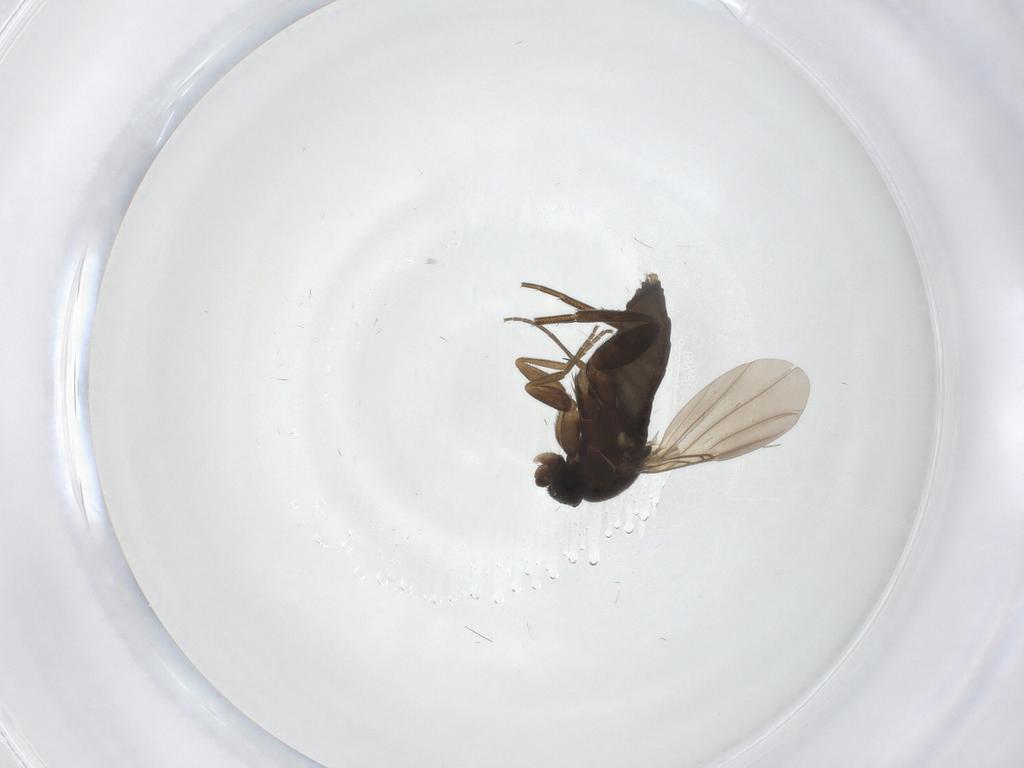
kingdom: Animalia
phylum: Arthropoda
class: Insecta
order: Diptera
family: Phoridae
